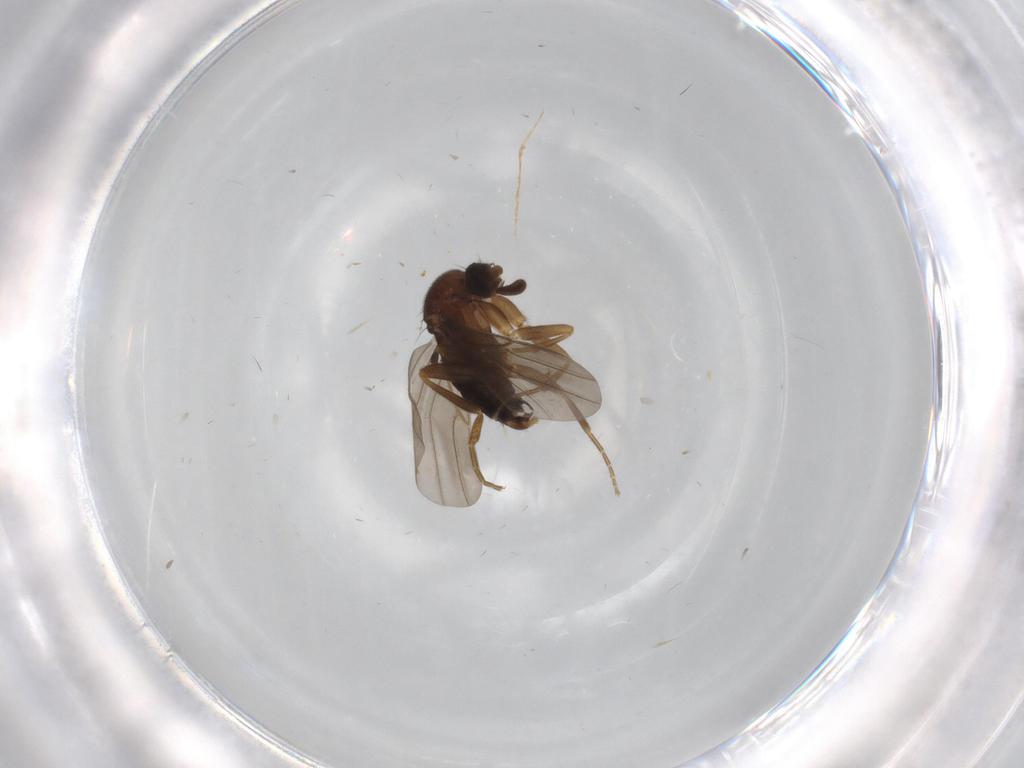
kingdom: Animalia
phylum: Arthropoda
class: Insecta
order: Diptera
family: Phoridae
